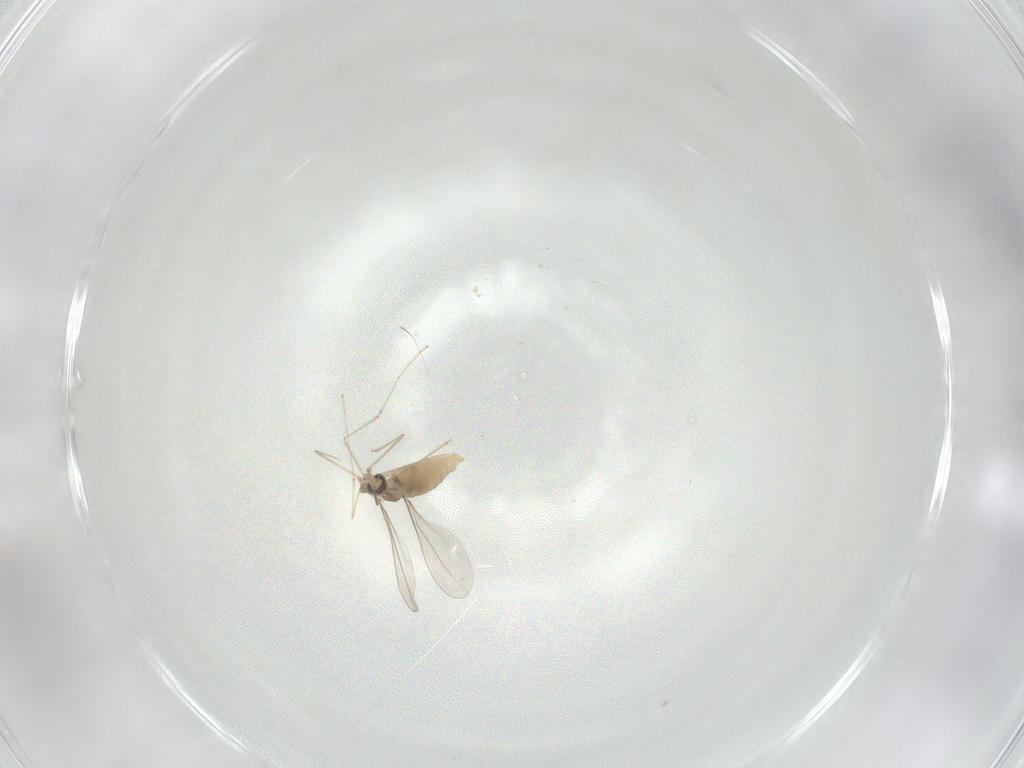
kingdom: Animalia
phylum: Arthropoda
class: Insecta
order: Diptera
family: Cecidomyiidae
